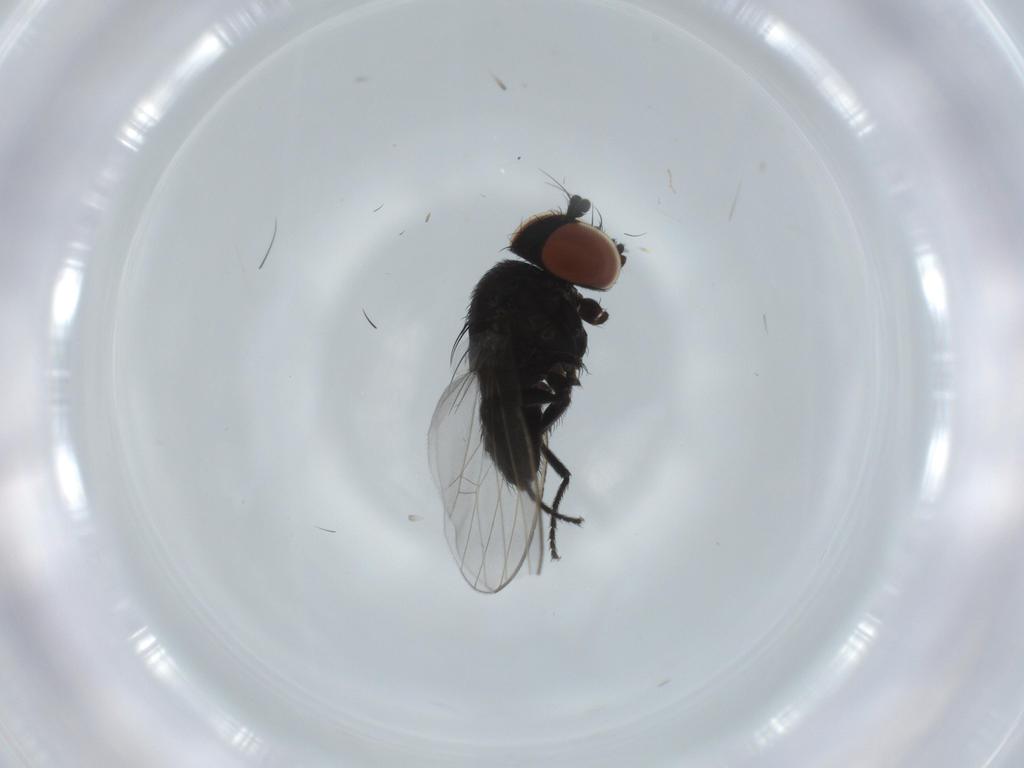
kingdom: Animalia
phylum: Arthropoda
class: Insecta
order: Diptera
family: Milichiidae
